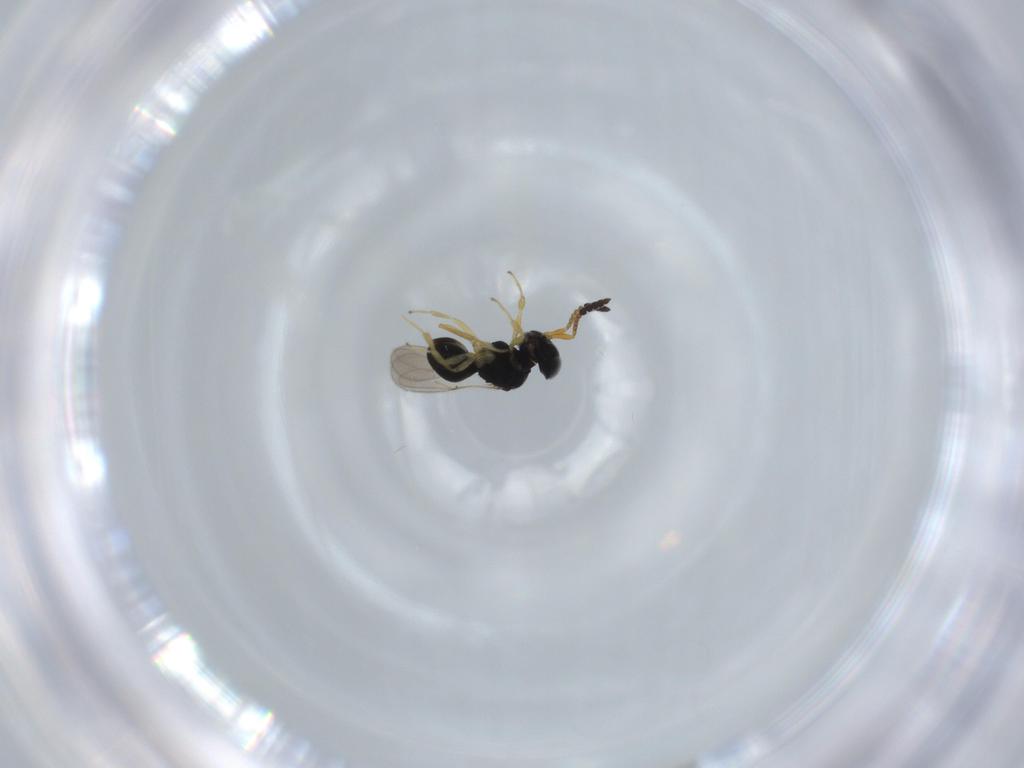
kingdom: Animalia
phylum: Arthropoda
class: Insecta
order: Hymenoptera
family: Scelionidae
